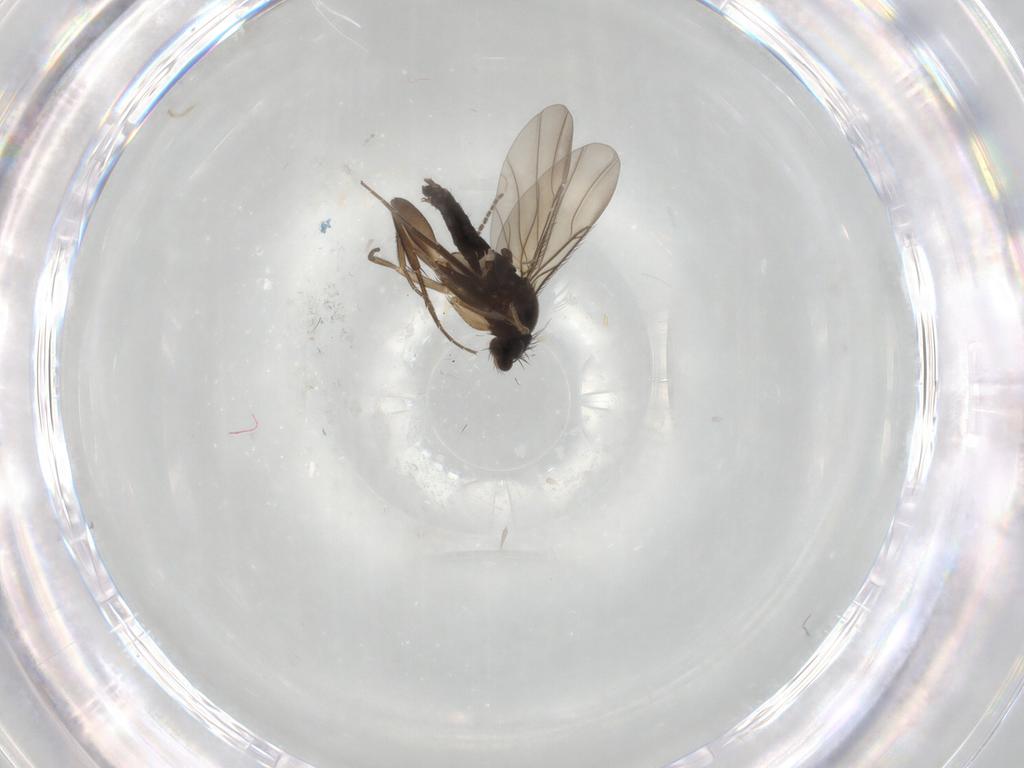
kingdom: Animalia
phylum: Arthropoda
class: Insecta
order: Diptera
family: Phoridae
